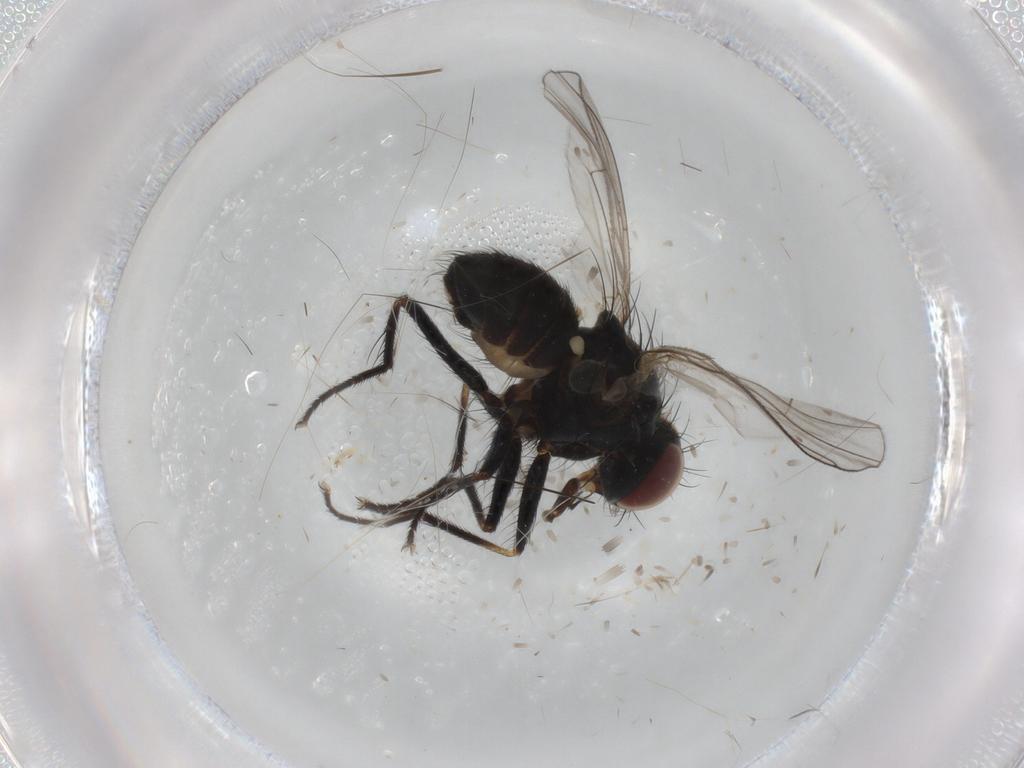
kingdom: Animalia
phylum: Arthropoda
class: Insecta
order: Diptera
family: Muscidae
